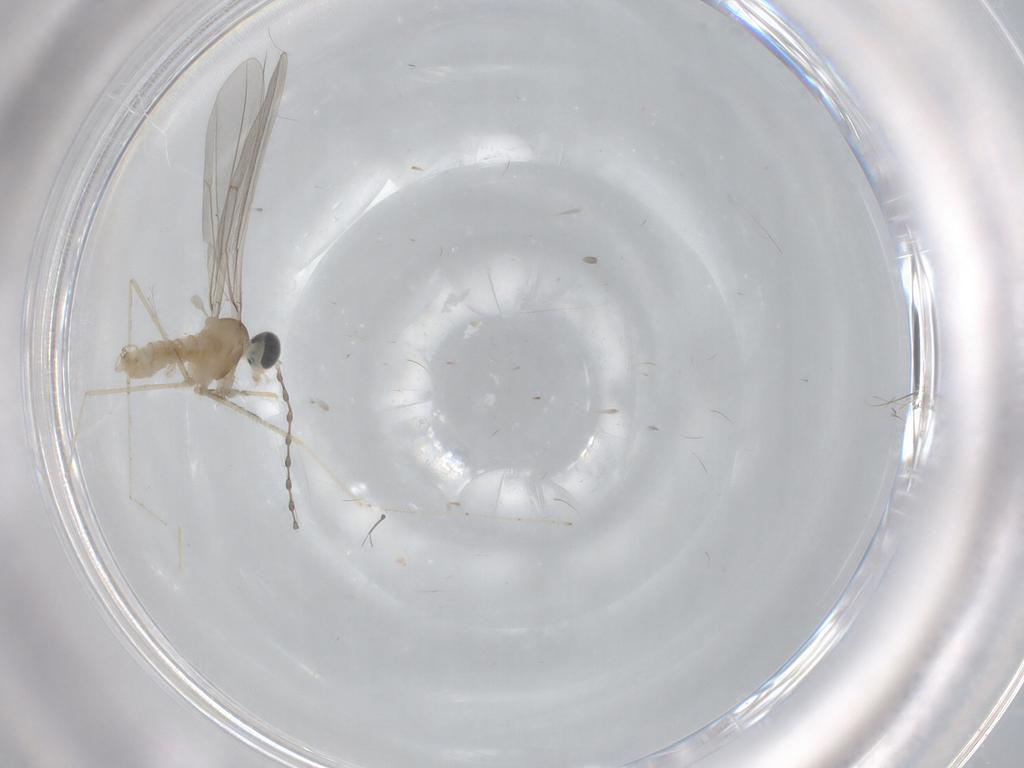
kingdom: Animalia
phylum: Arthropoda
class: Insecta
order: Diptera
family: Cecidomyiidae
